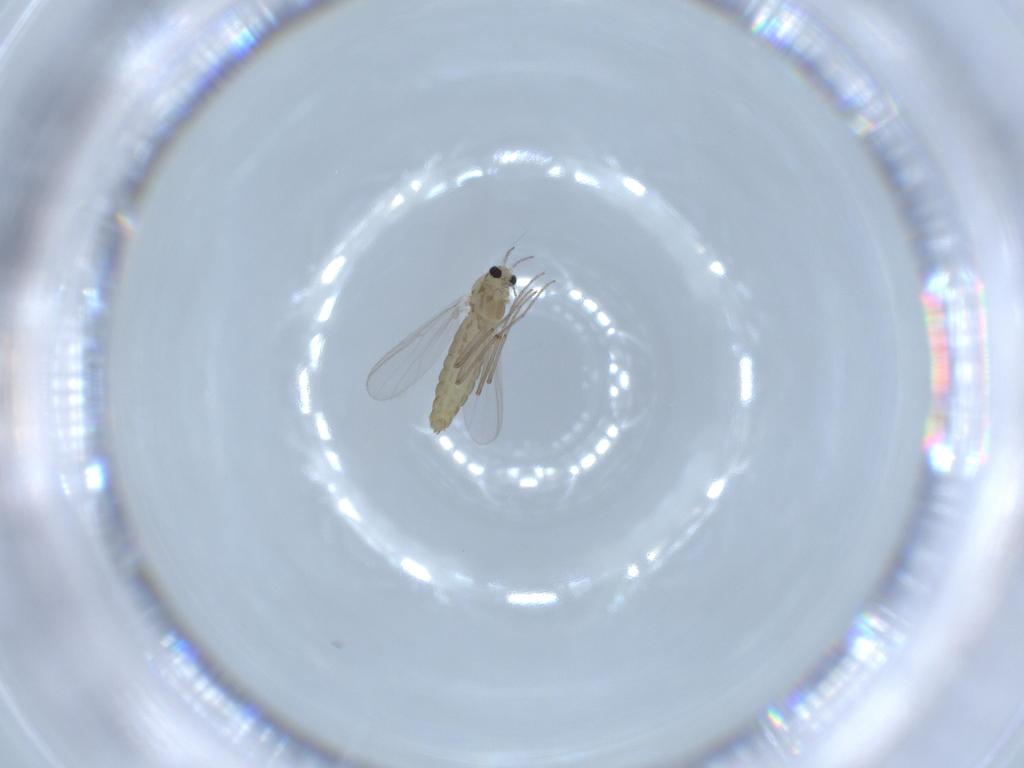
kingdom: Animalia
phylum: Arthropoda
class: Insecta
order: Diptera
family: Chironomidae
